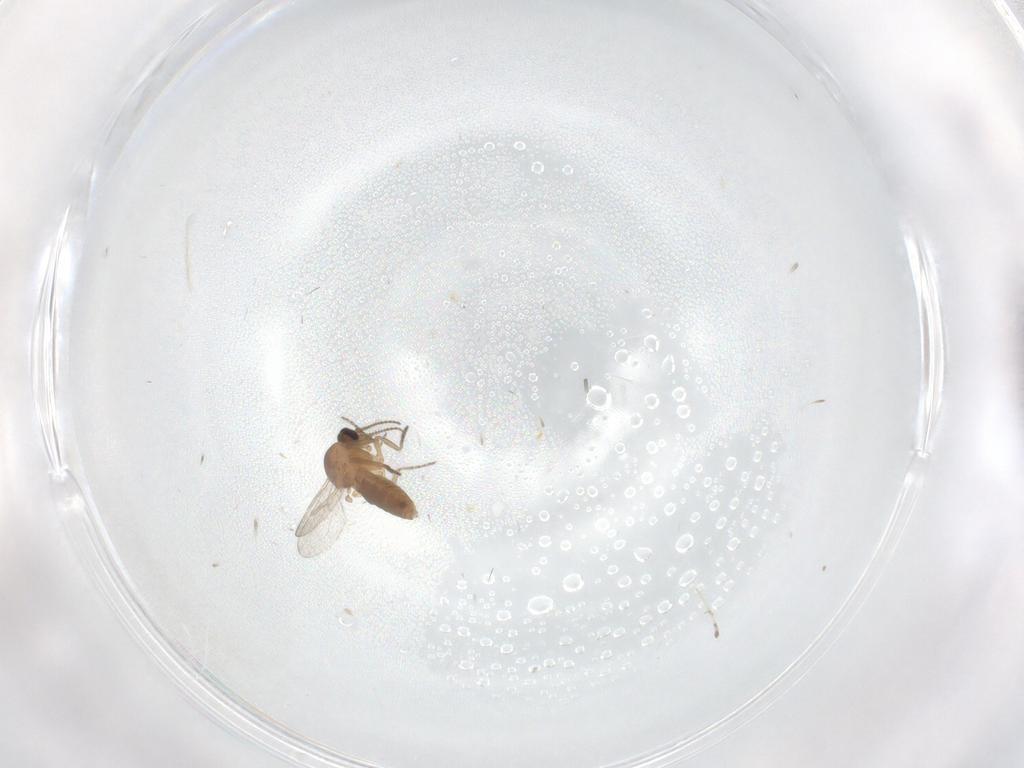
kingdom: Animalia
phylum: Arthropoda
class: Insecta
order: Diptera
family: Ceratopogonidae
